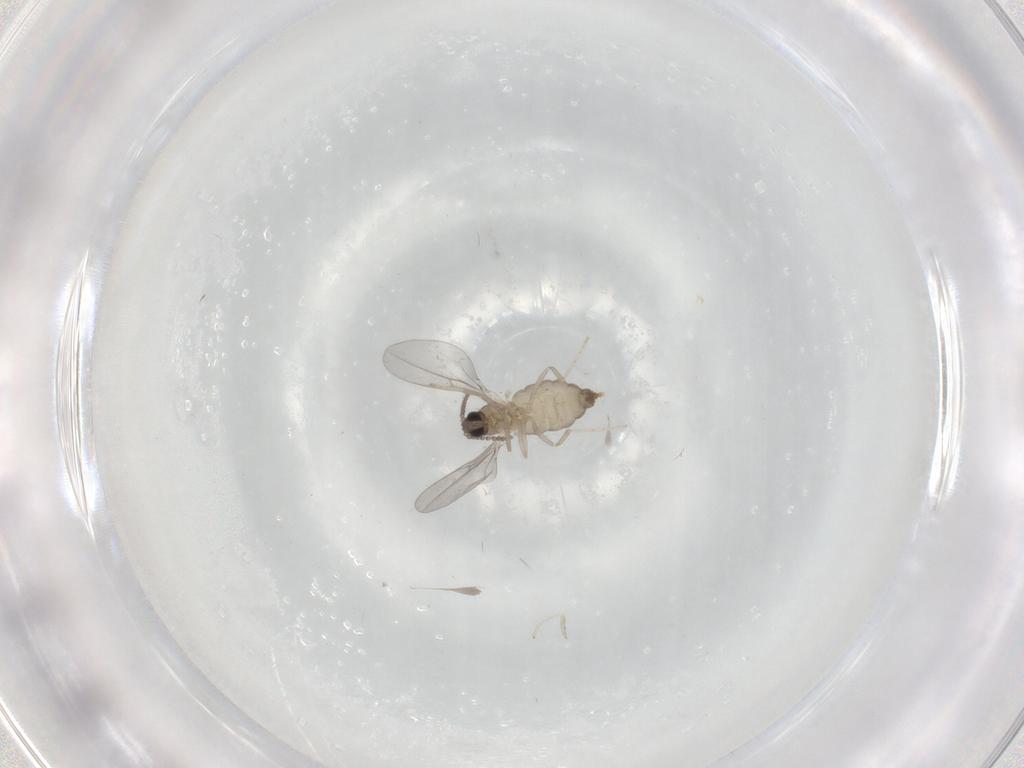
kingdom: Animalia
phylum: Arthropoda
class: Insecta
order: Diptera
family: Cecidomyiidae
